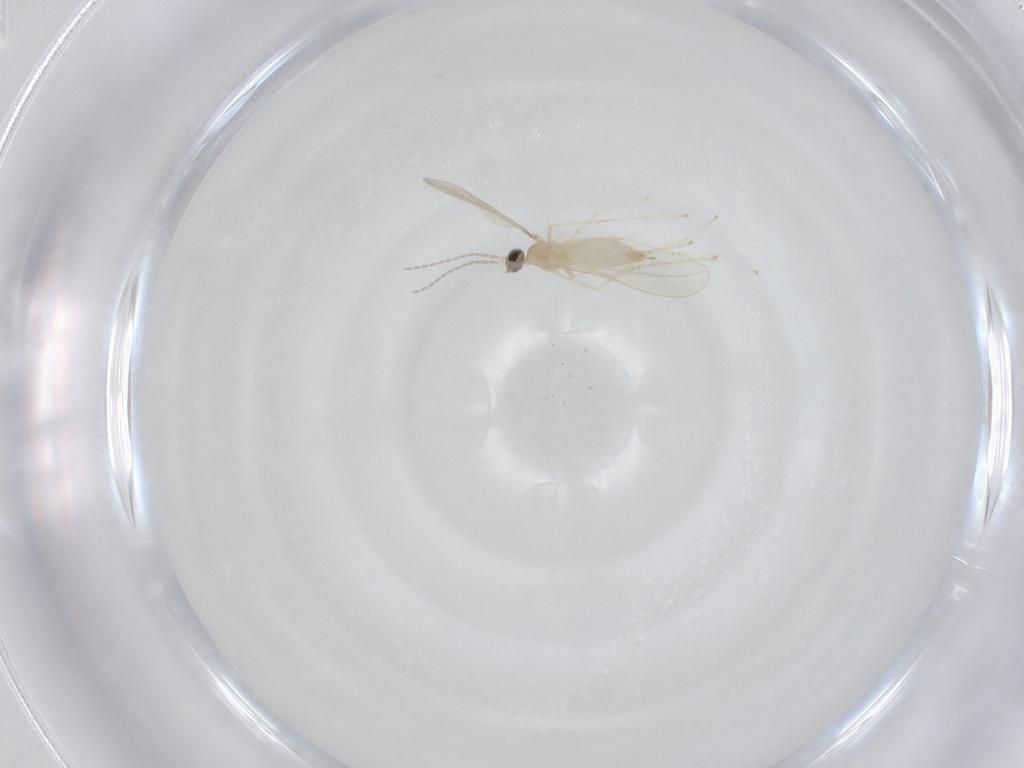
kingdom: Animalia
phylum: Arthropoda
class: Insecta
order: Diptera
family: Cecidomyiidae
